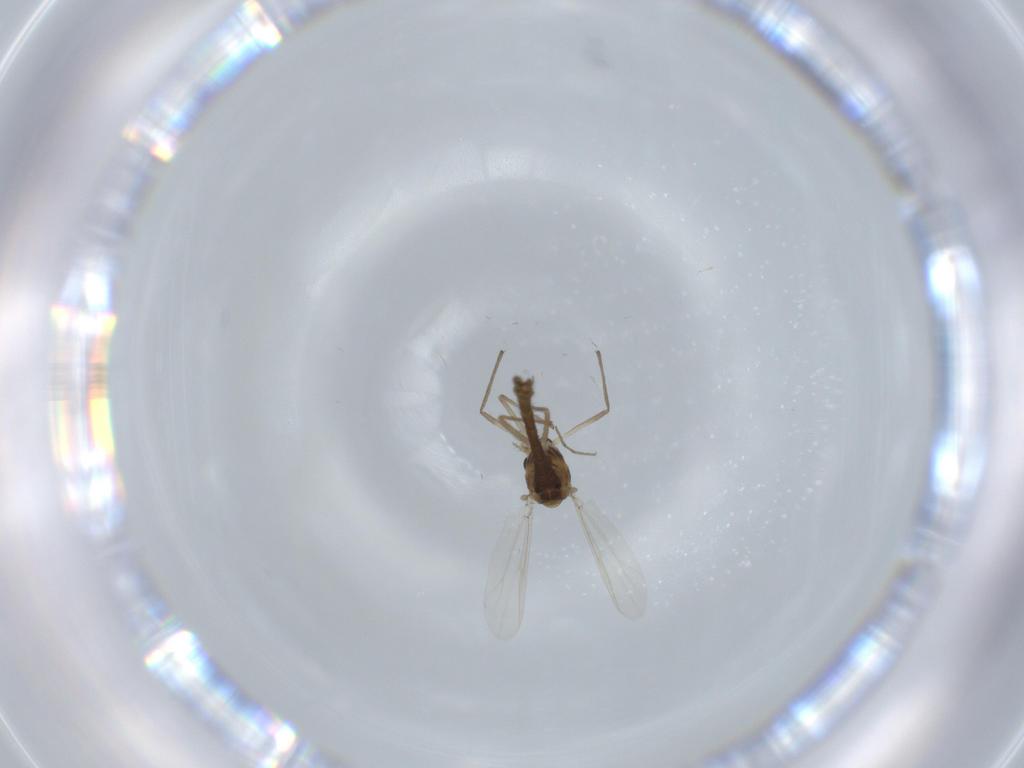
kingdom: Animalia
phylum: Arthropoda
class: Insecta
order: Diptera
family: Chironomidae
